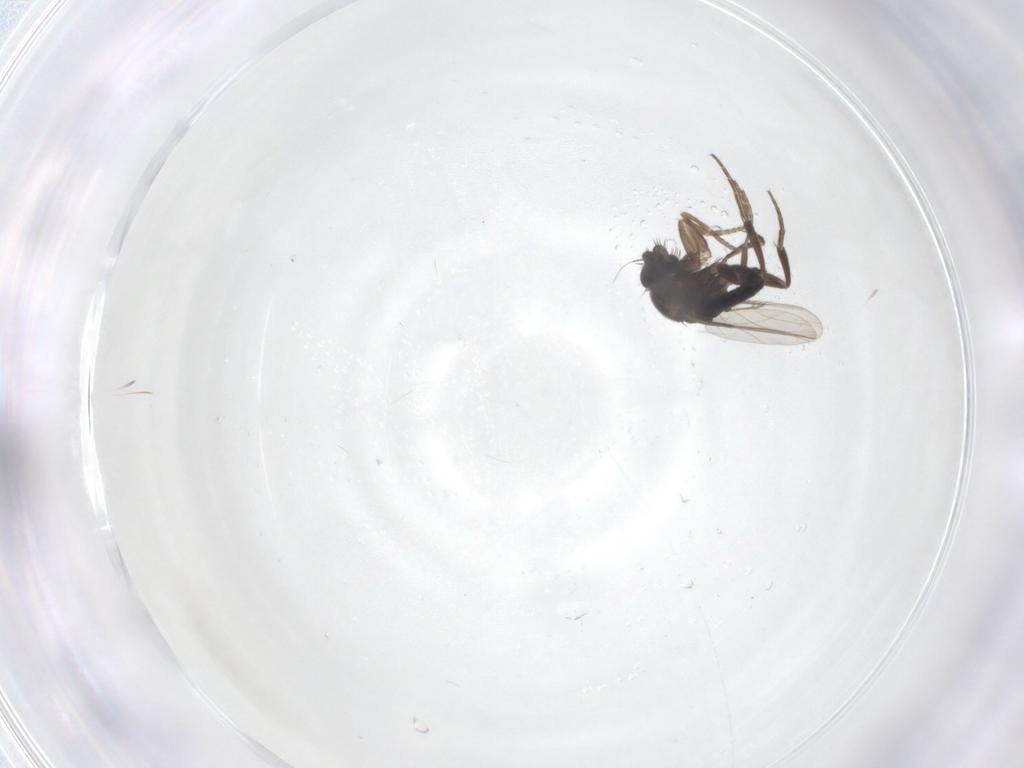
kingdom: Animalia
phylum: Arthropoda
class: Insecta
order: Diptera
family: Phoridae
